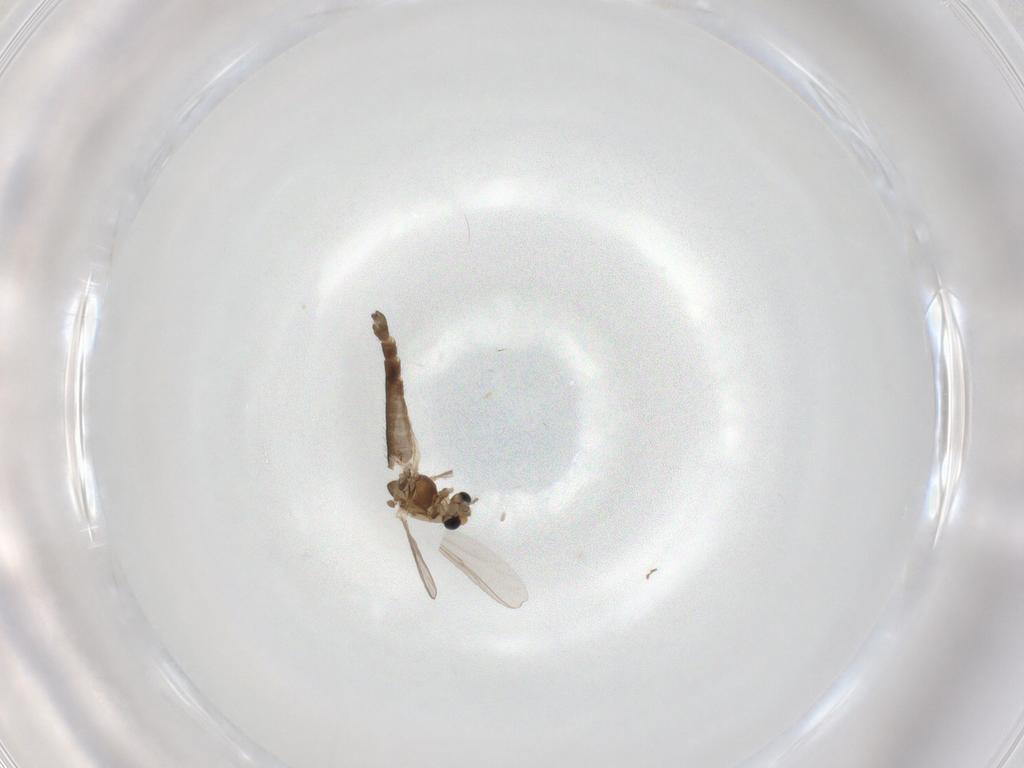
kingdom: Animalia
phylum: Arthropoda
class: Insecta
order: Diptera
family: Chironomidae
